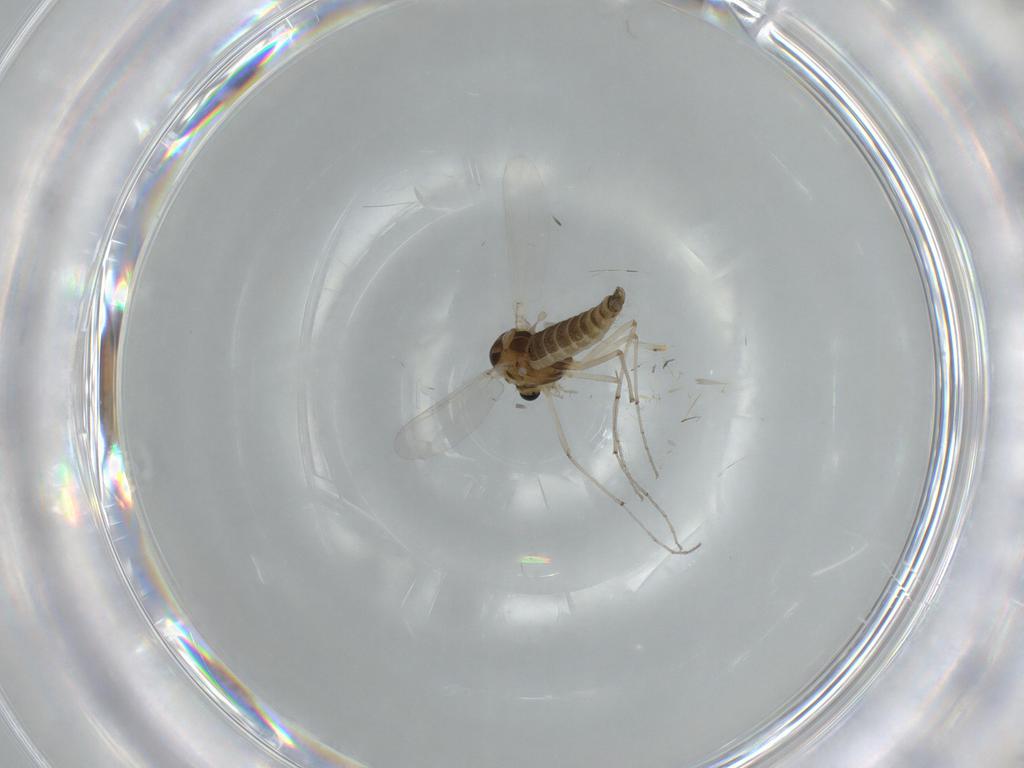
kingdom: Animalia
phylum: Arthropoda
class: Insecta
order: Diptera
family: Chironomidae
